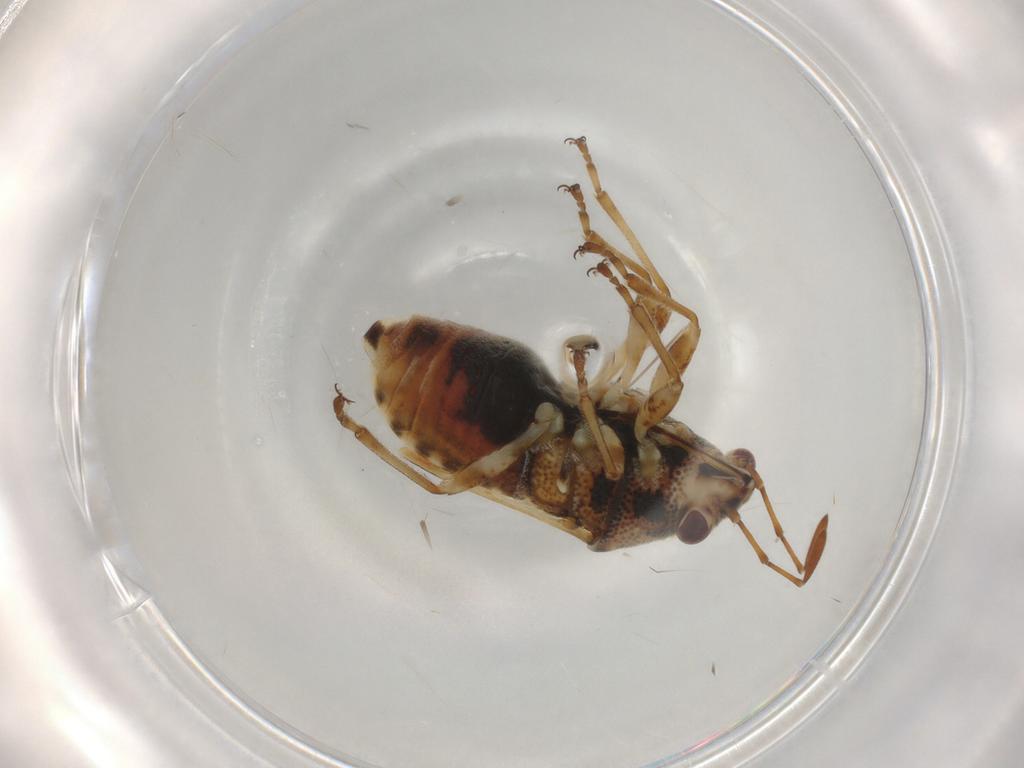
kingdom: Animalia
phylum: Arthropoda
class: Insecta
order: Hemiptera
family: Lygaeidae
